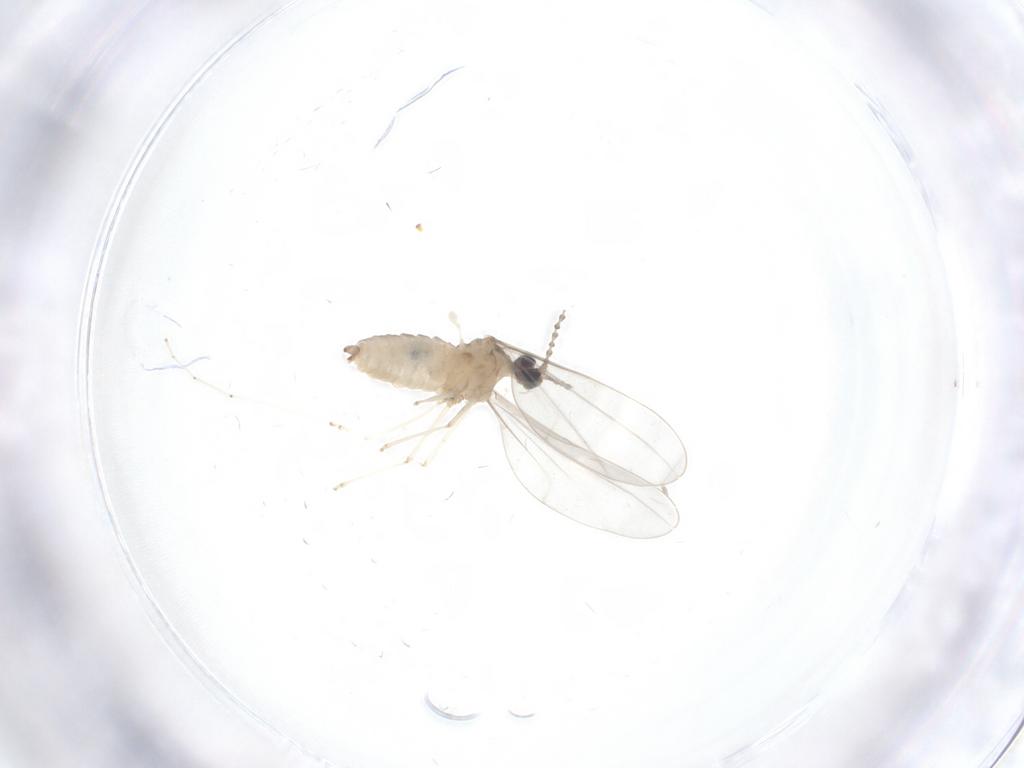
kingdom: Animalia
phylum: Arthropoda
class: Insecta
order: Diptera
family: Cecidomyiidae
